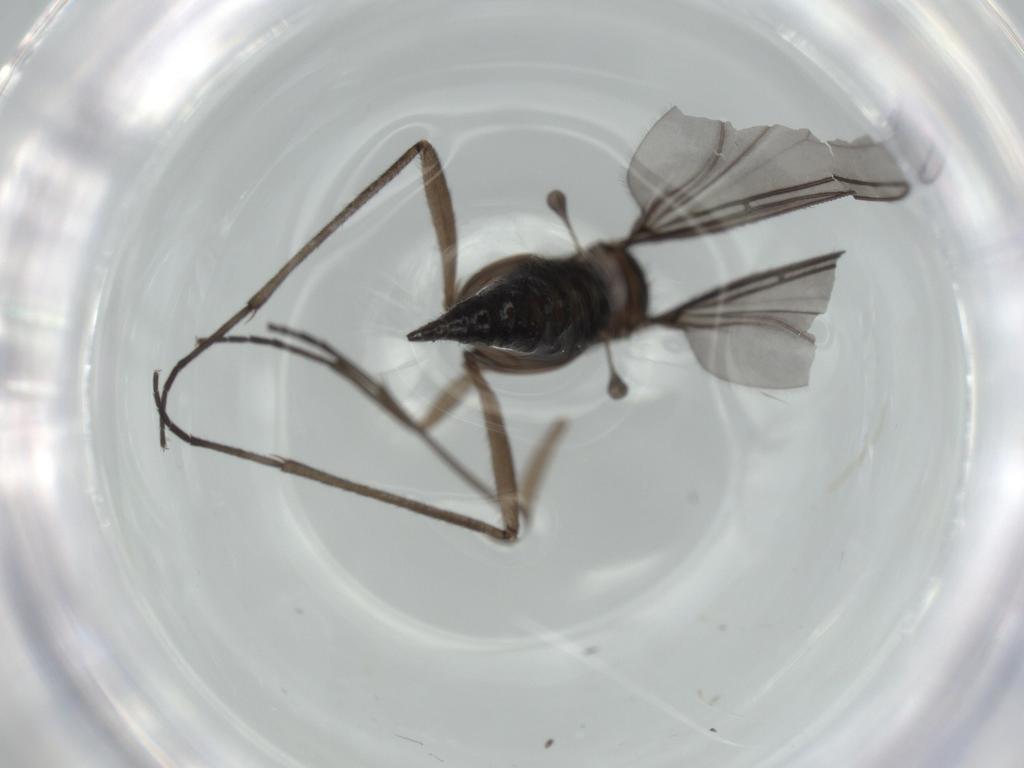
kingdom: Animalia
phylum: Arthropoda
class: Insecta
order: Diptera
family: Sciaridae
